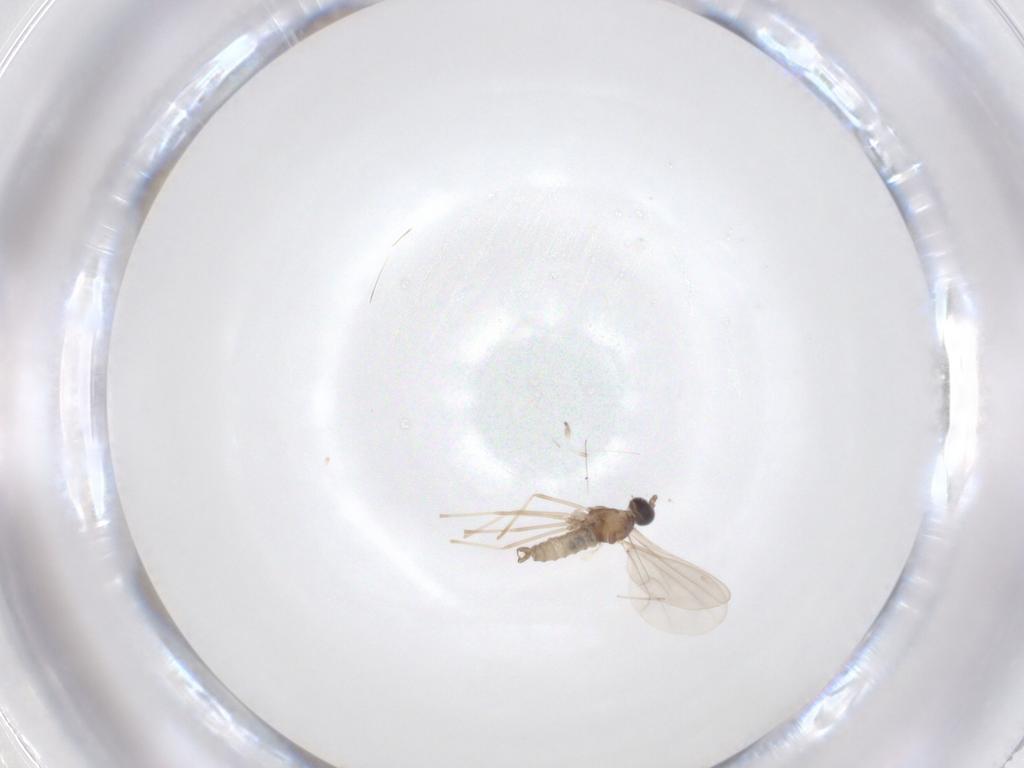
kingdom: Animalia
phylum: Arthropoda
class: Insecta
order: Diptera
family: Cecidomyiidae
